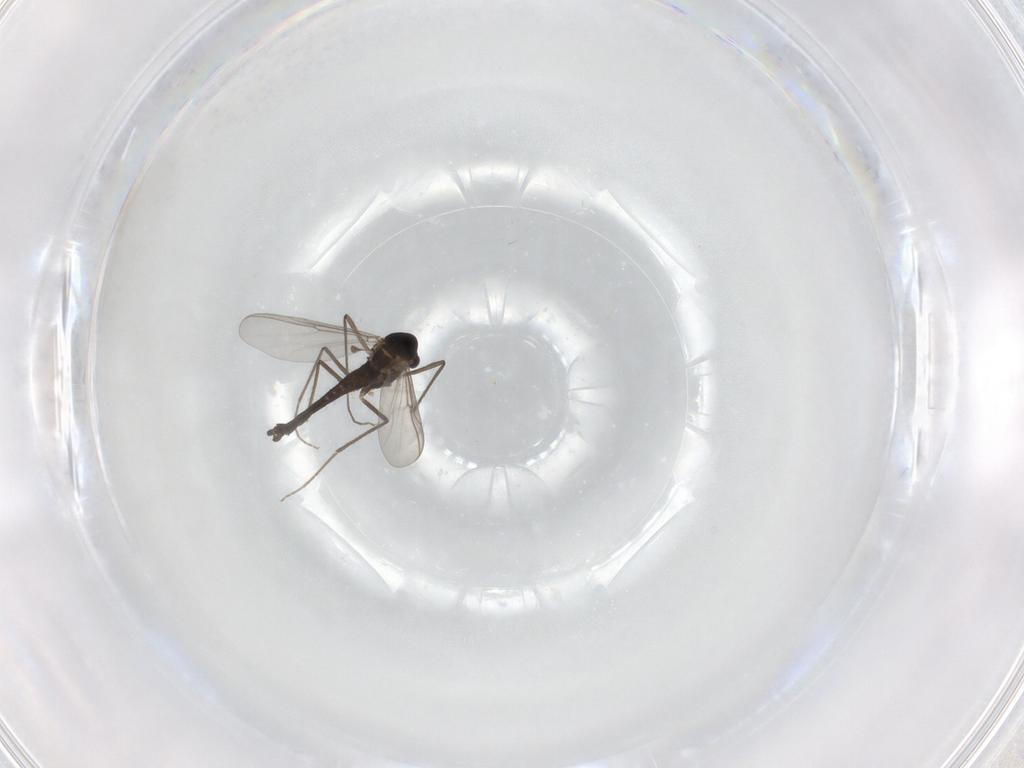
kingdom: Animalia
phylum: Arthropoda
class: Insecta
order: Diptera
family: Chironomidae
